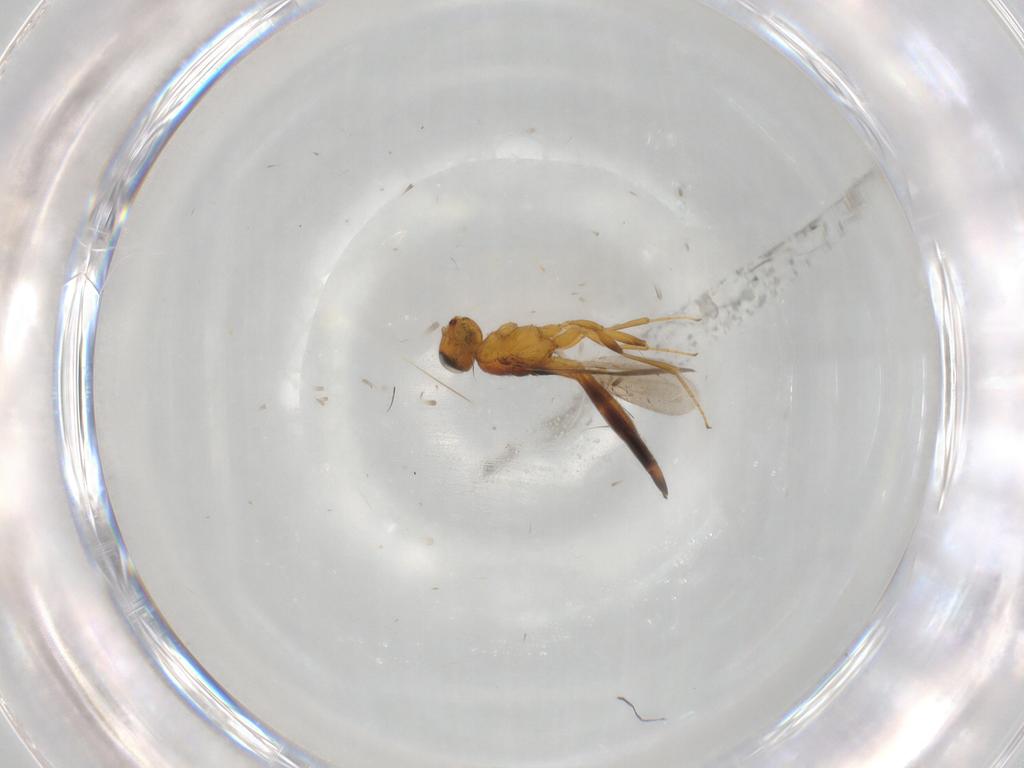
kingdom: Animalia
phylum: Arthropoda
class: Insecta
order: Hymenoptera
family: Scelionidae
